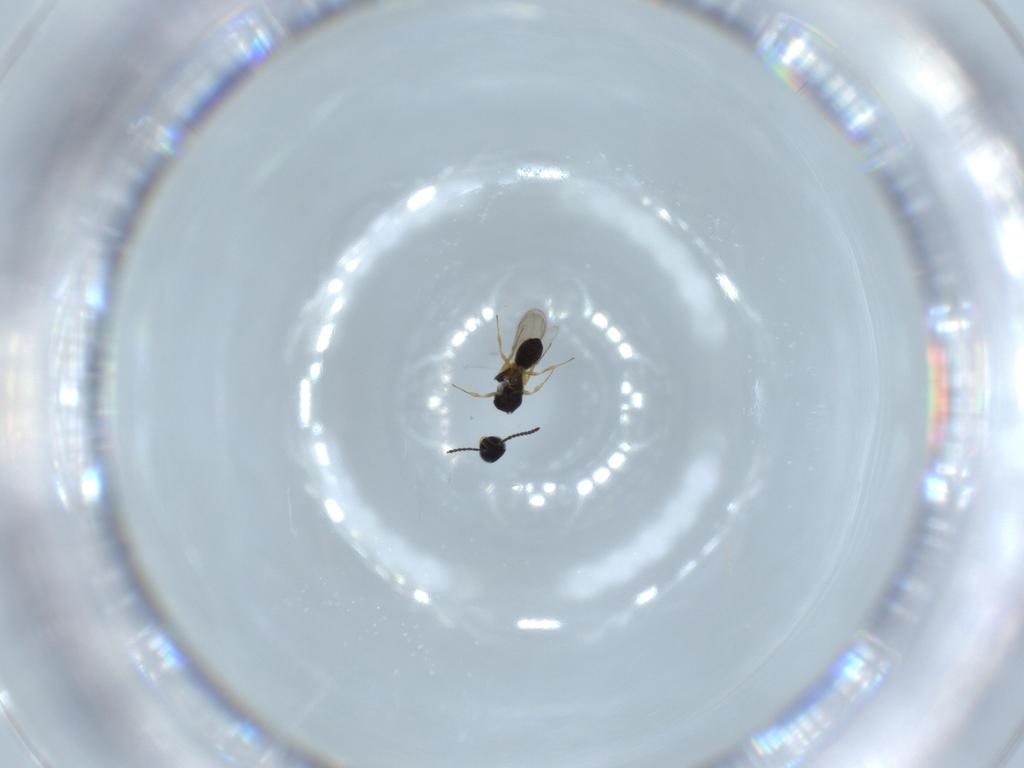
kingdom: Animalia
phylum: Arthropoda
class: Insecta
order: Hymenoptera
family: Scelionidae
